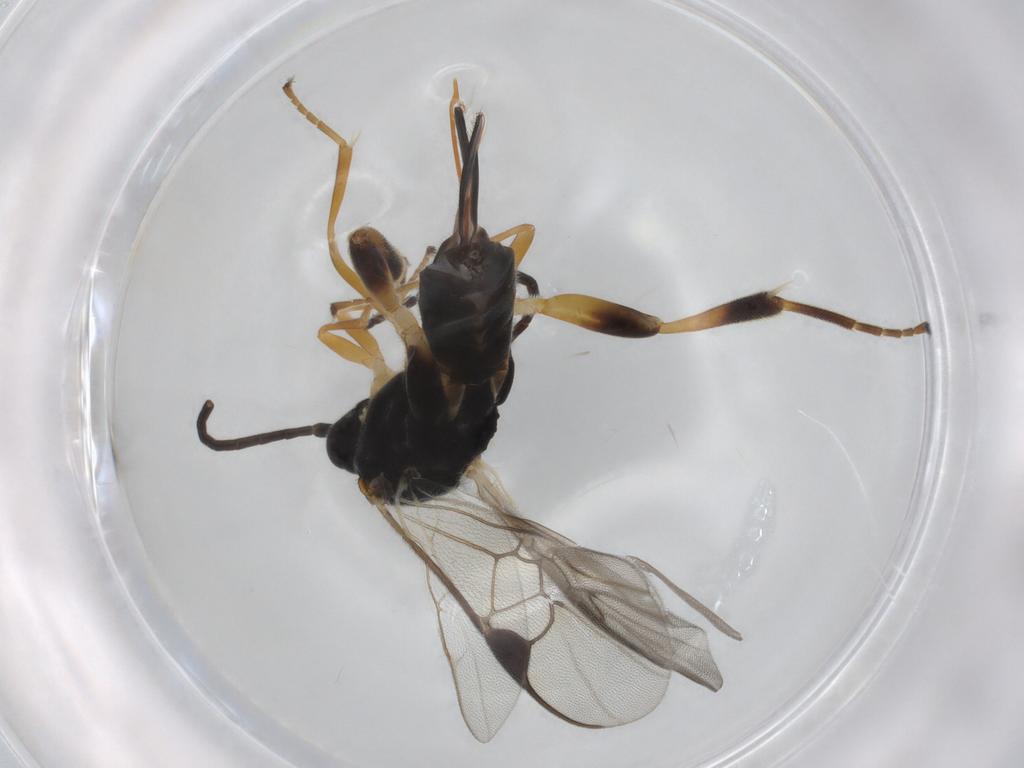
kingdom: Animalia
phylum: Arthropoda
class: Insecta
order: Hymenoptera
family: Braconidae
